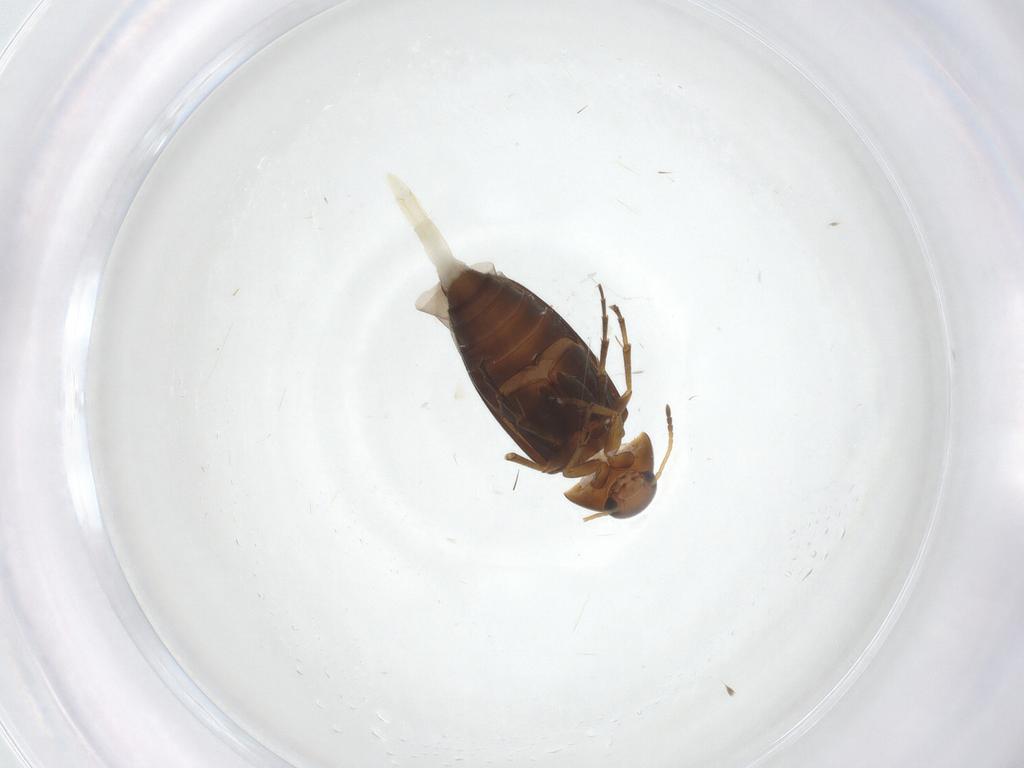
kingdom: Animalia
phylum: Arthropoda
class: Insecta
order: Coleoptera
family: Scraptiidae
